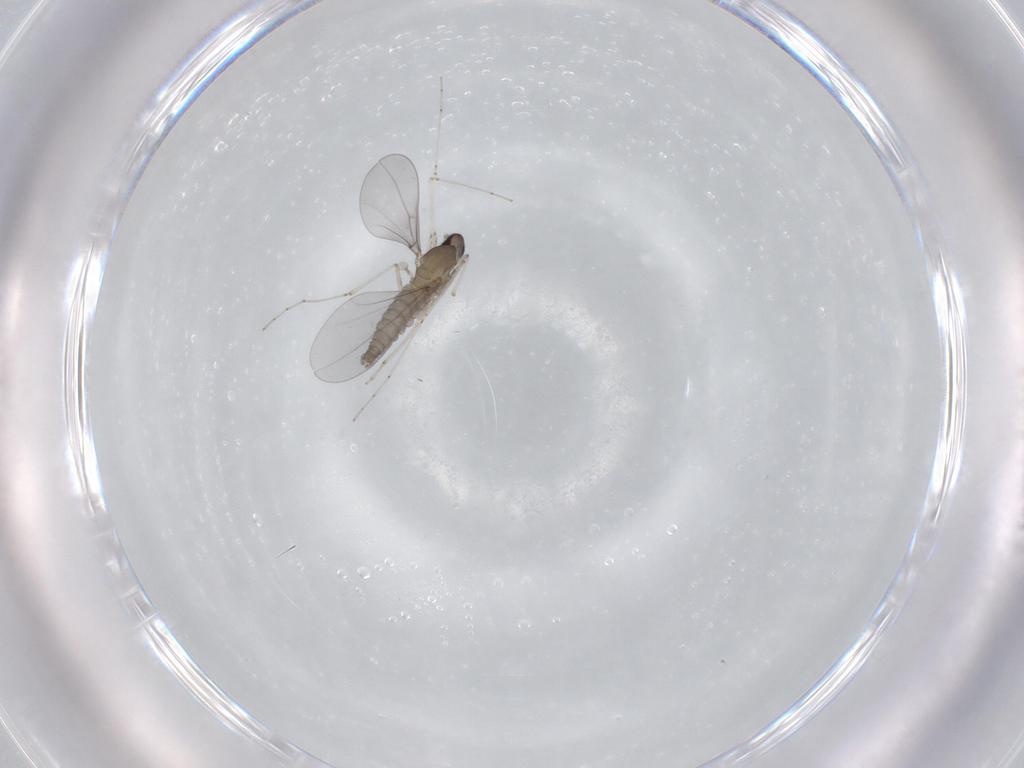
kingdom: Animalia
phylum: Arthropoda
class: Insecta
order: Diptera
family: Cecidomyiidae
